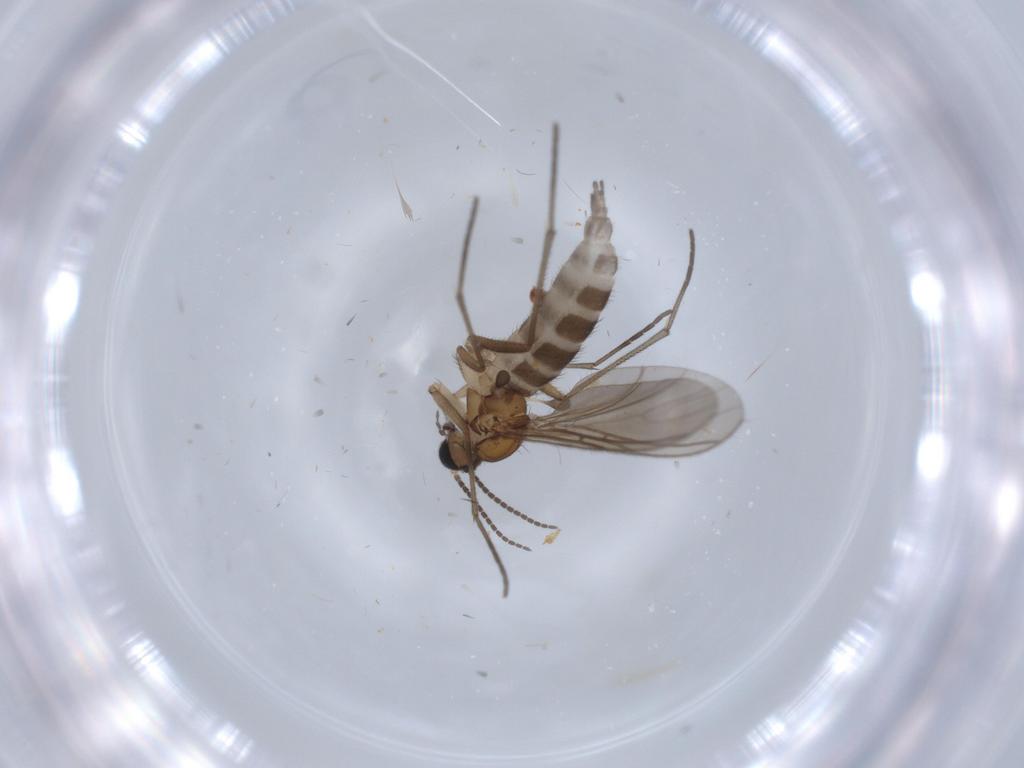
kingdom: Animalia
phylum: Arthropoda
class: Insecta
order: Diptera
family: Sciaridae
